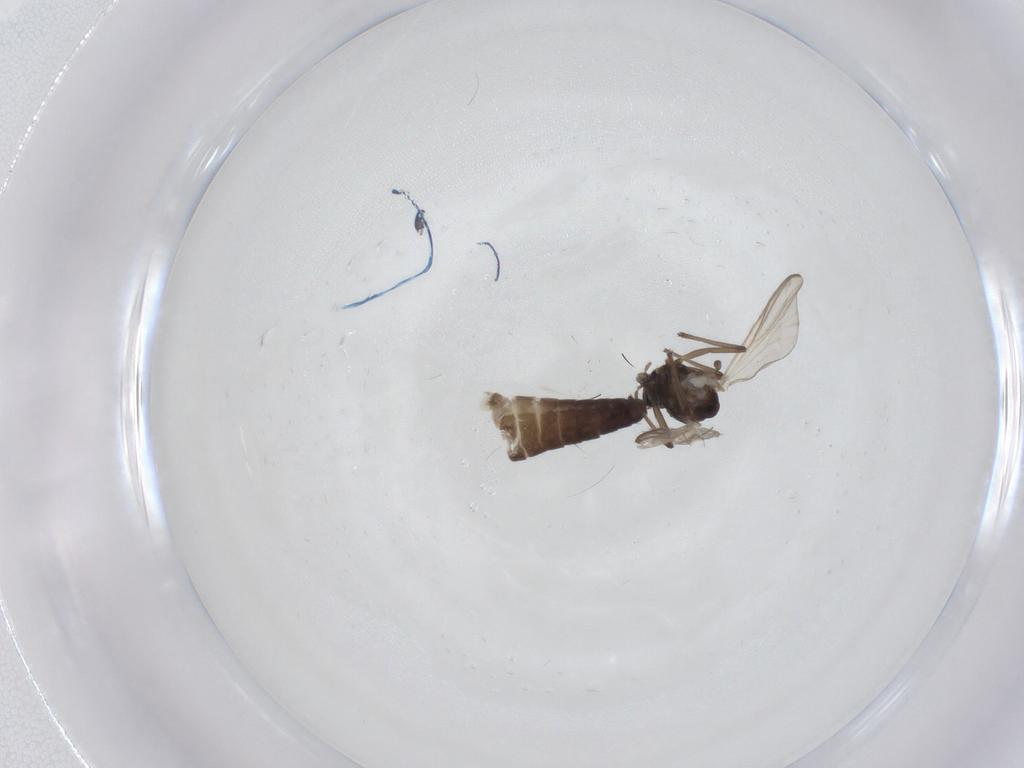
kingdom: Animalia
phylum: Arthropoda
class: Insecta
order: Diptera
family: Chironomidae
